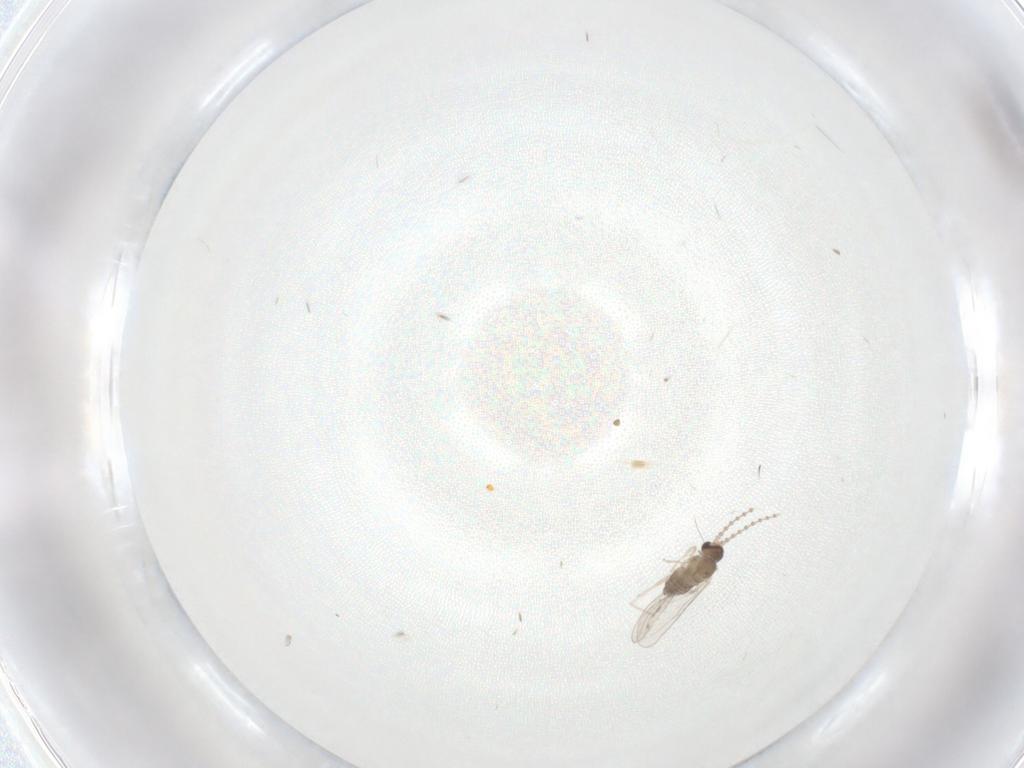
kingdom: Animalia
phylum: Arthropoda
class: Insecta
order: Diptera
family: Cecidomyiidae
